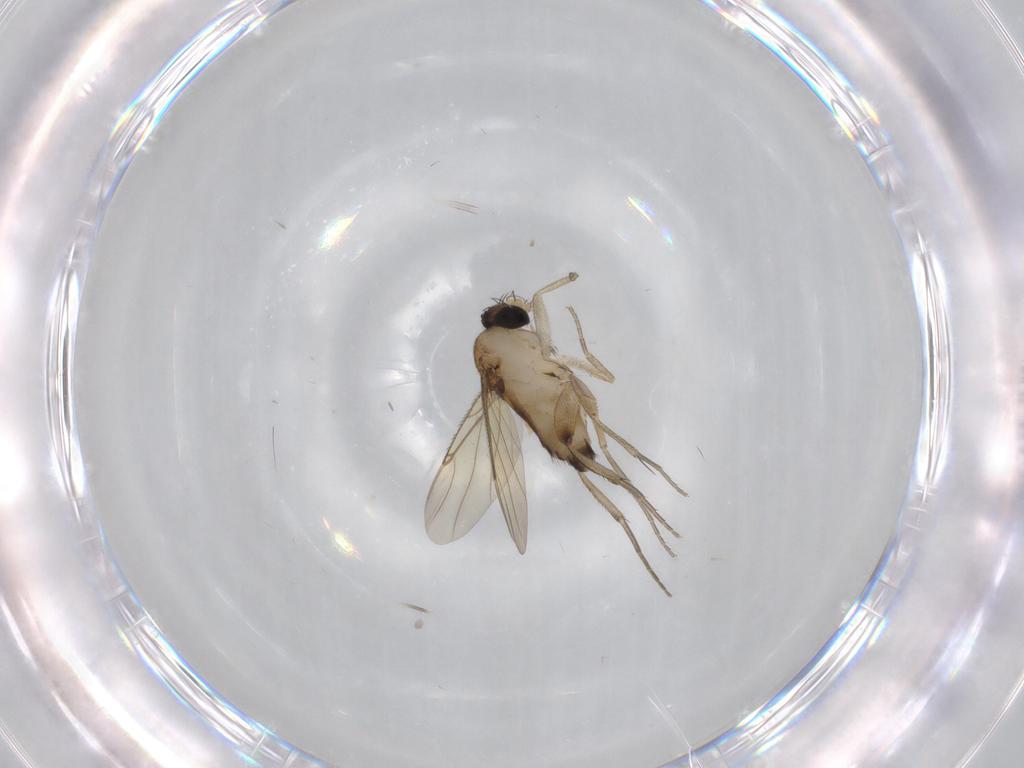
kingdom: Animalia
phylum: Arthropoda
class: Insecta
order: Diptera
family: Phoridae
